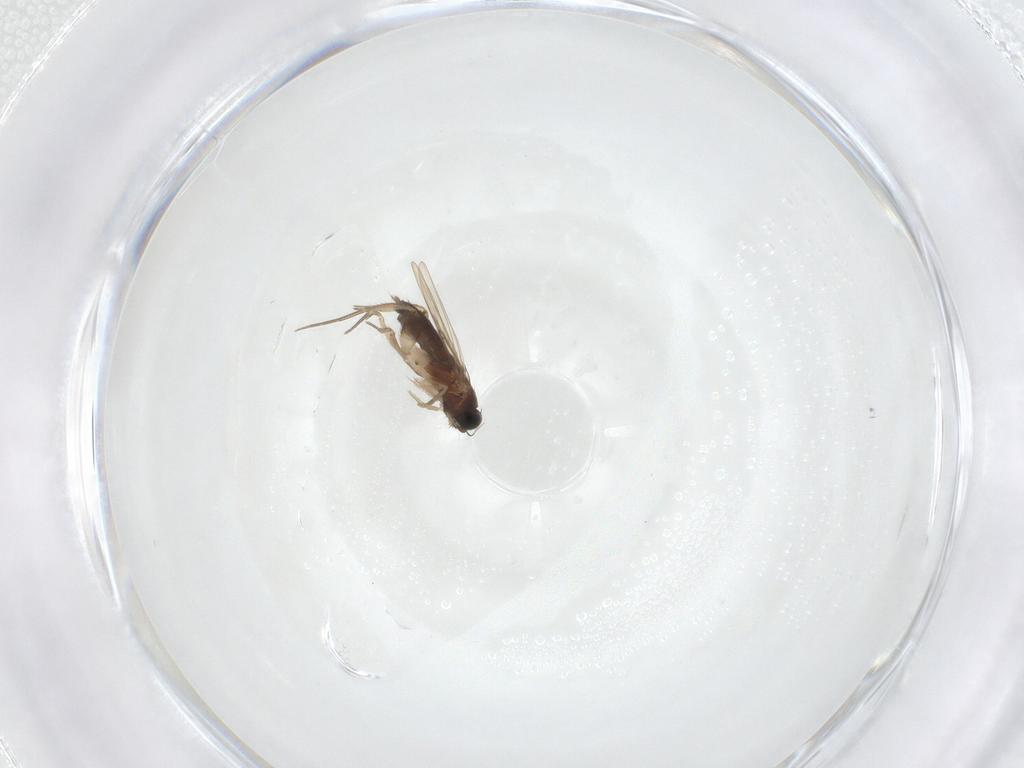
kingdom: Animalia
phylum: Arthropoda
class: Insecta
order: Diptera
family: Phoridae
